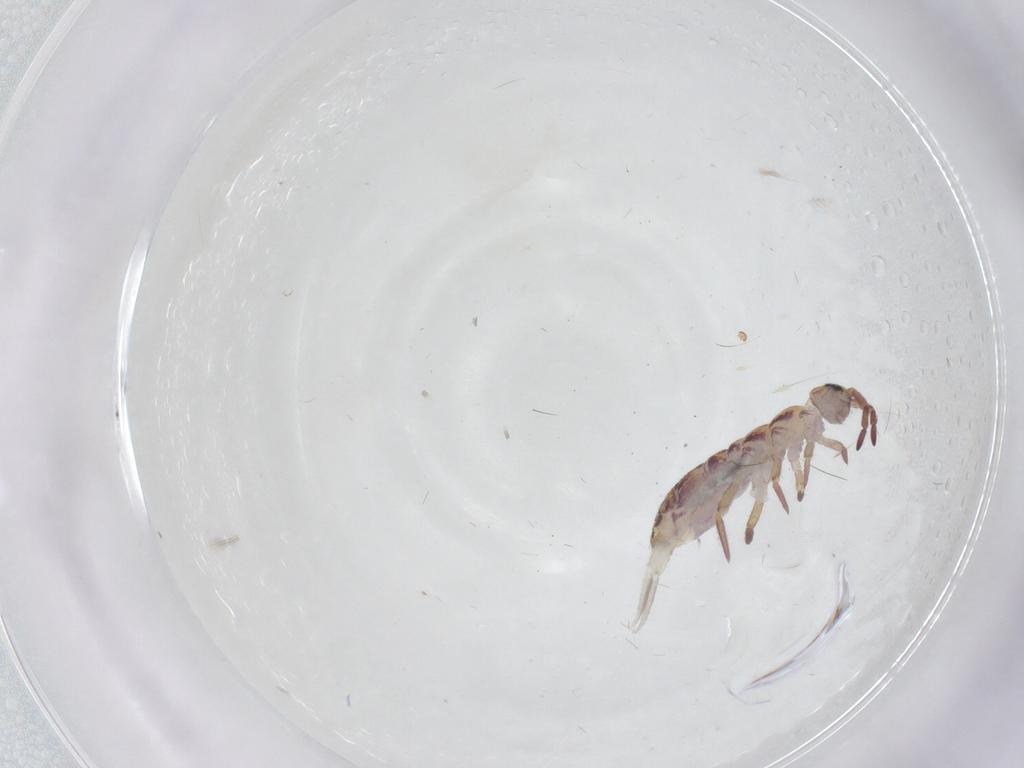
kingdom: Animalia
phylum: Arthropoda
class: Collembola
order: Entomobryomorpha
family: Isotomidae
